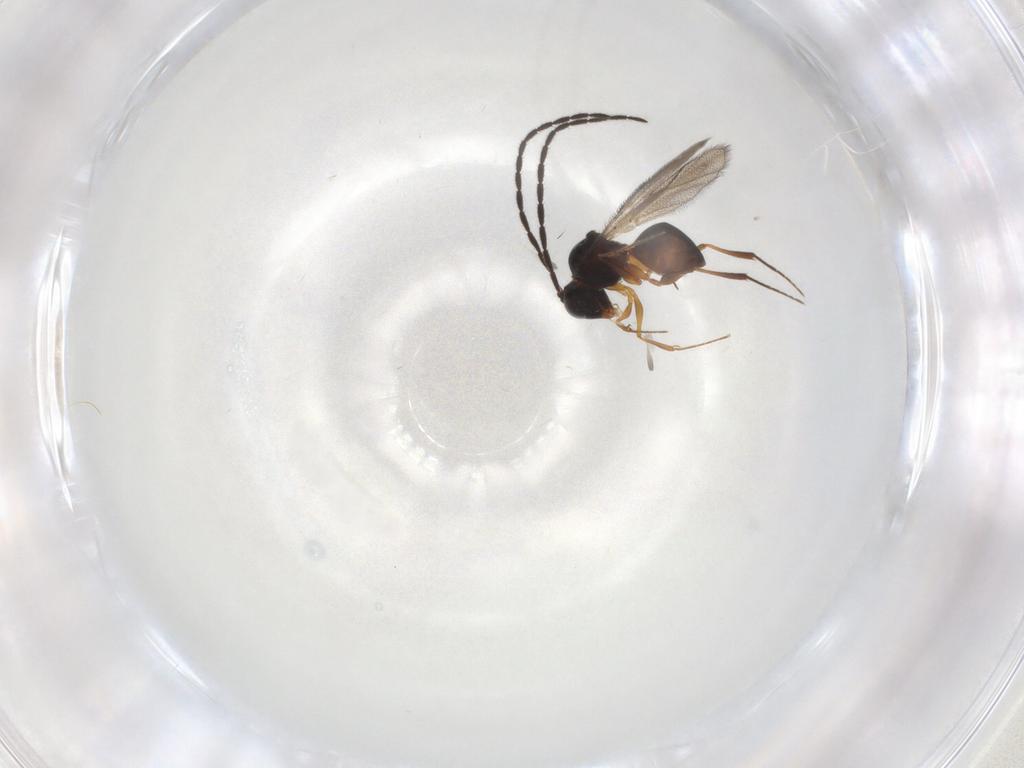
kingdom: Animalia
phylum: Arthropoda
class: Insecta
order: Hymenoptera
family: Figitidae
